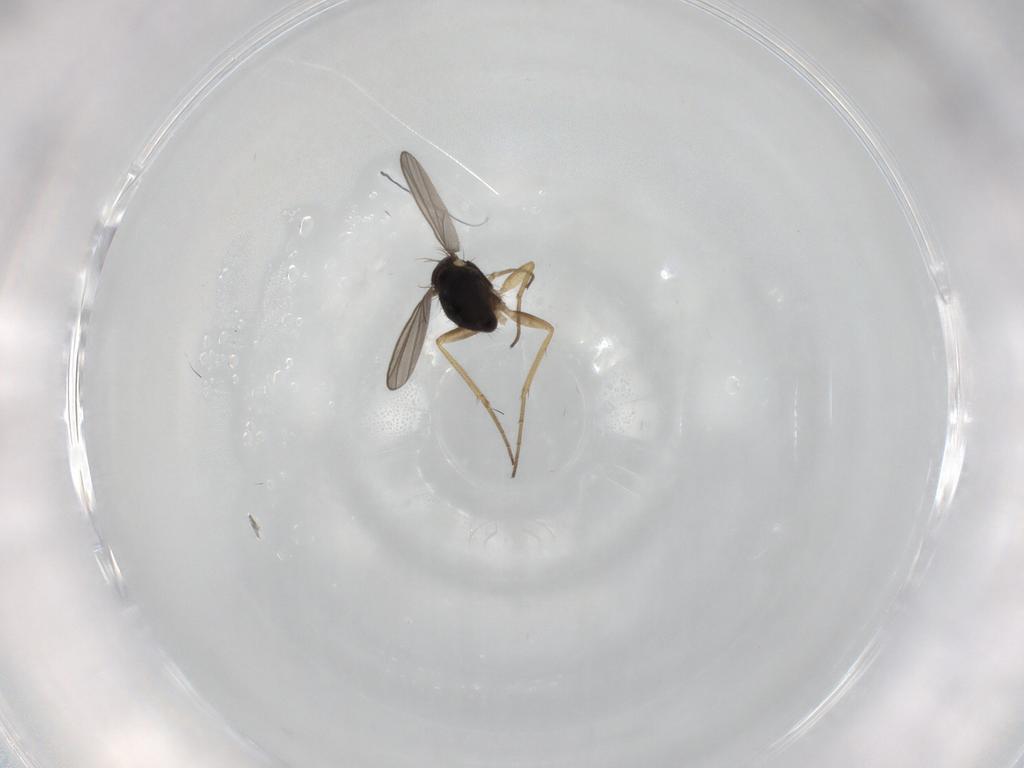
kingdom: Animalia
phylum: Arthropoda
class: Insecta
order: Diptera
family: Dolichopodidae
